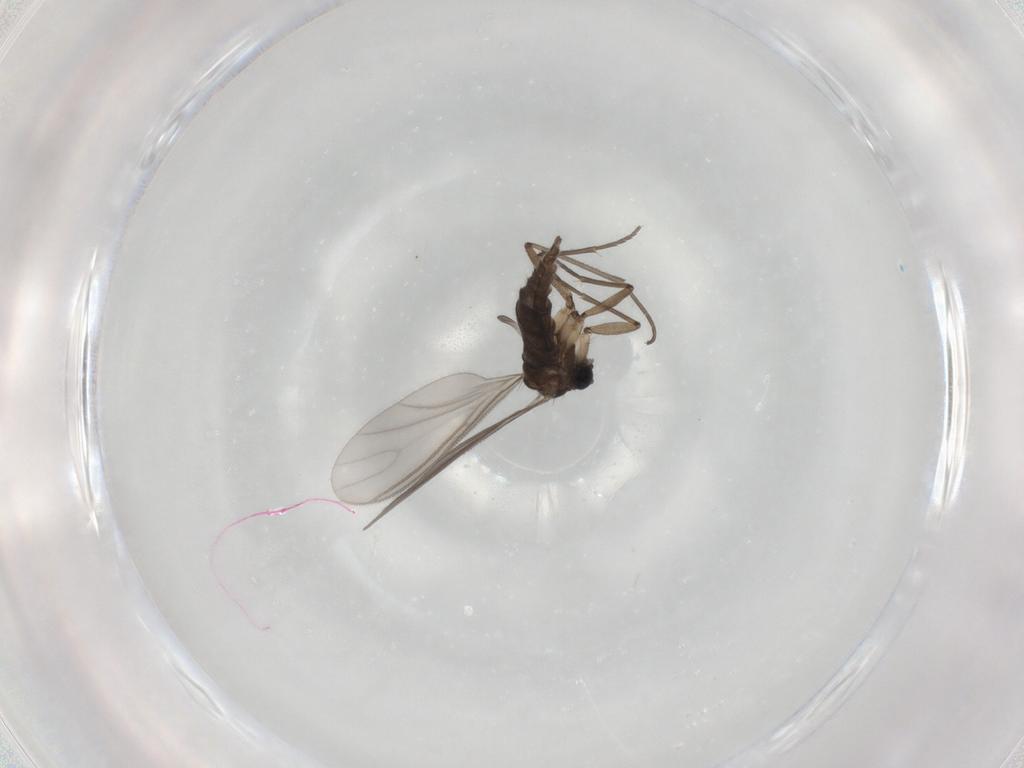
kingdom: Animalia
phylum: Arthropoda
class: Insecta
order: Diptera
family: Sciaridae
